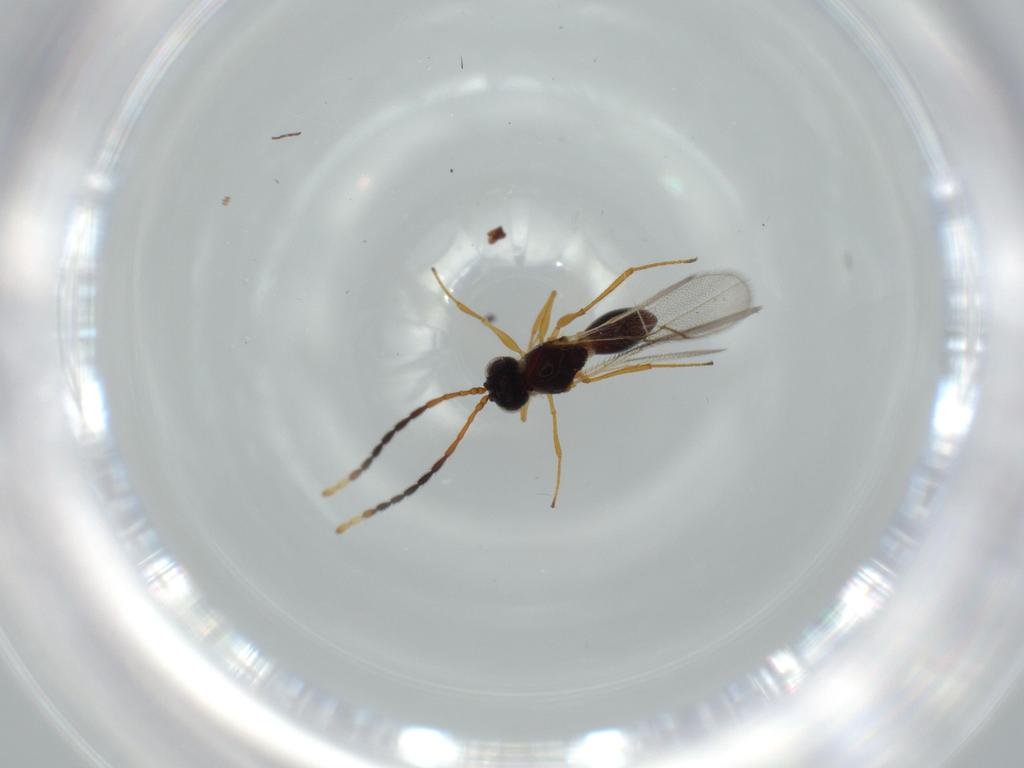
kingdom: Animalia
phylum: Arthropoda
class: Insecta
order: Hymenoptera
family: Figitidae
